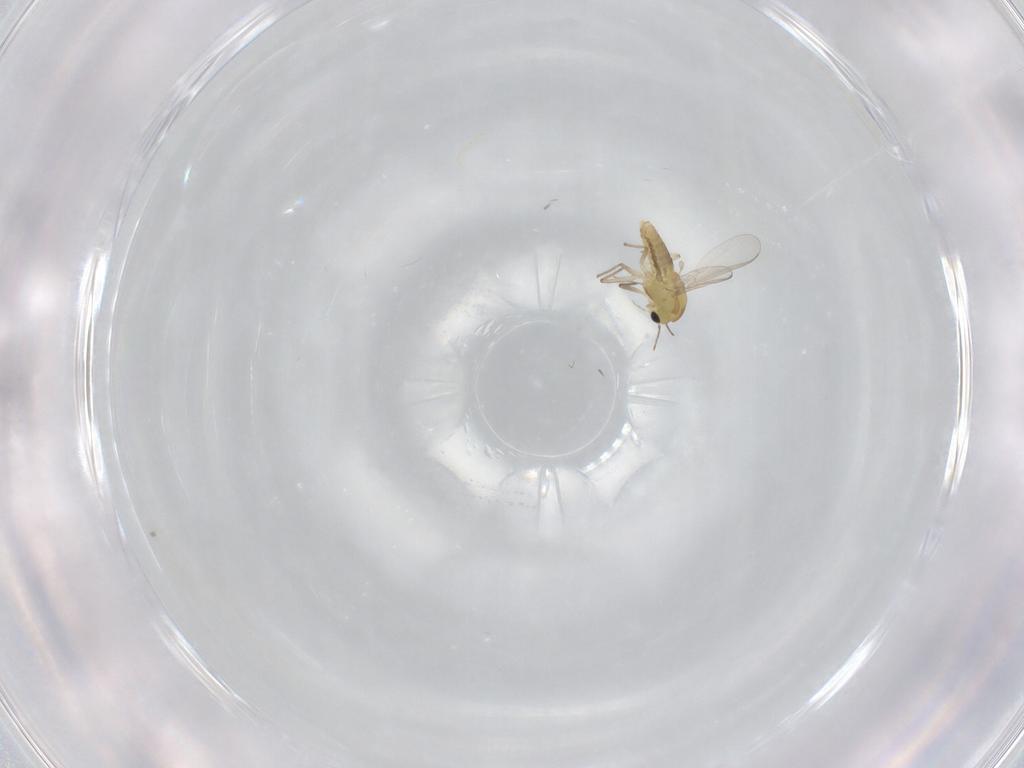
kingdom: Animalia
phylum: Arthropoda
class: Insecta
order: Diptera
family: Chironomidae
